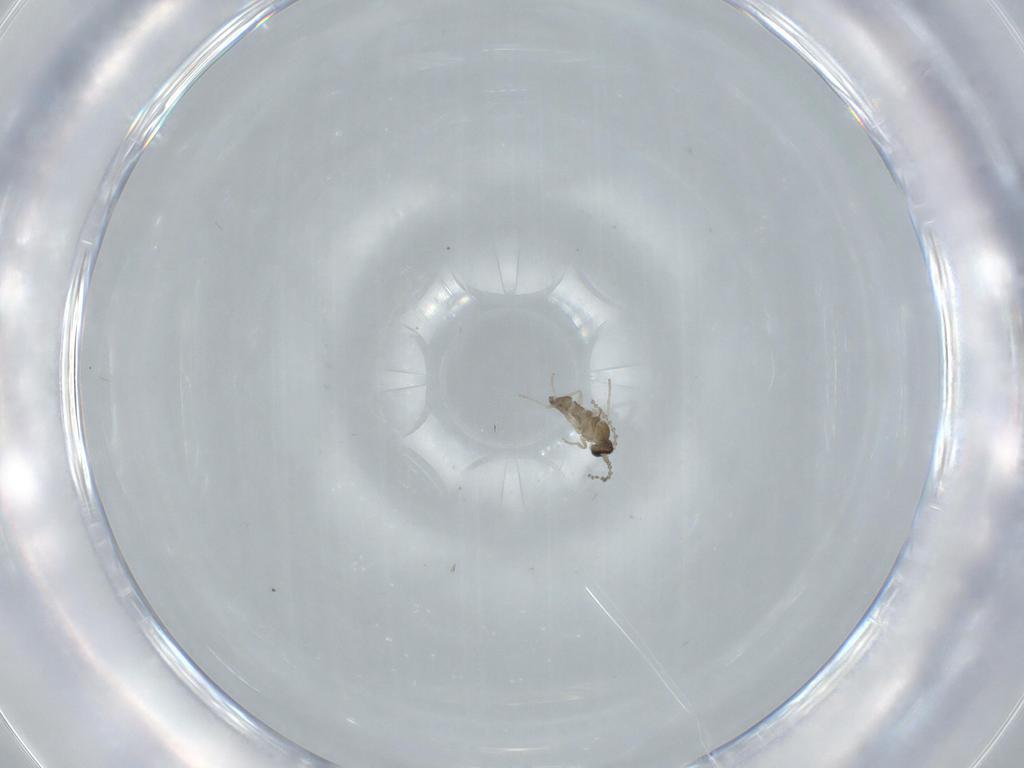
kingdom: Animalia
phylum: Arthropoda
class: Insecta
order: Diptera
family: Cecidomyiidae
